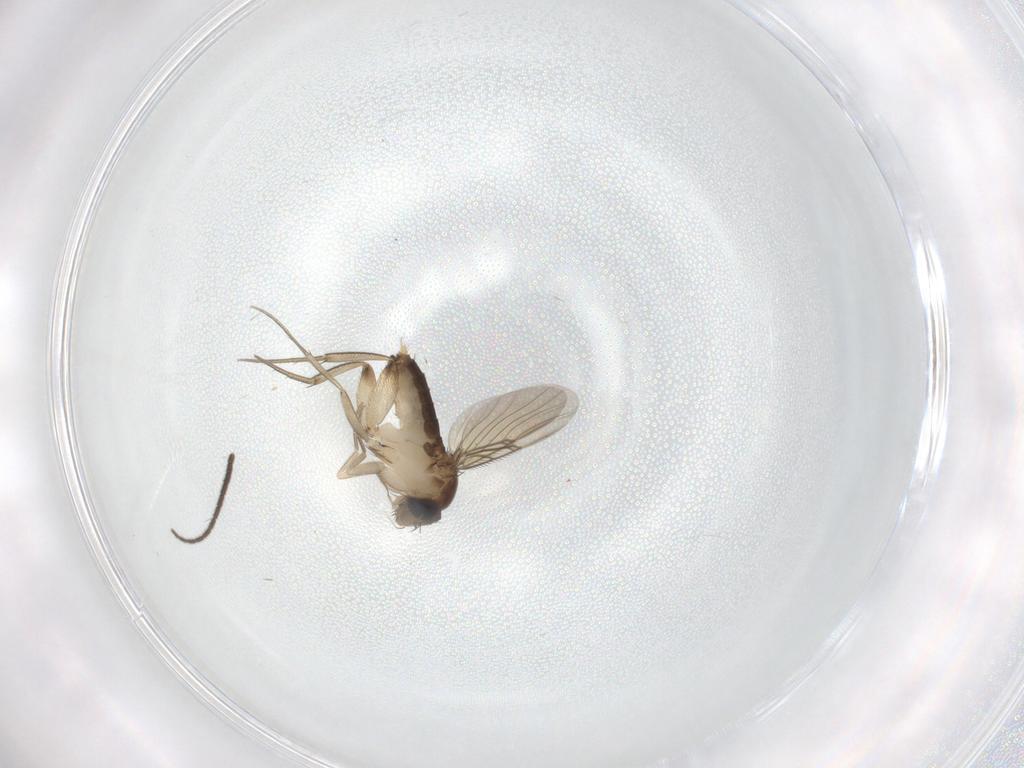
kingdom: Animalia
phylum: Arthropoda
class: Insecta
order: Diptera
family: Phoridae
